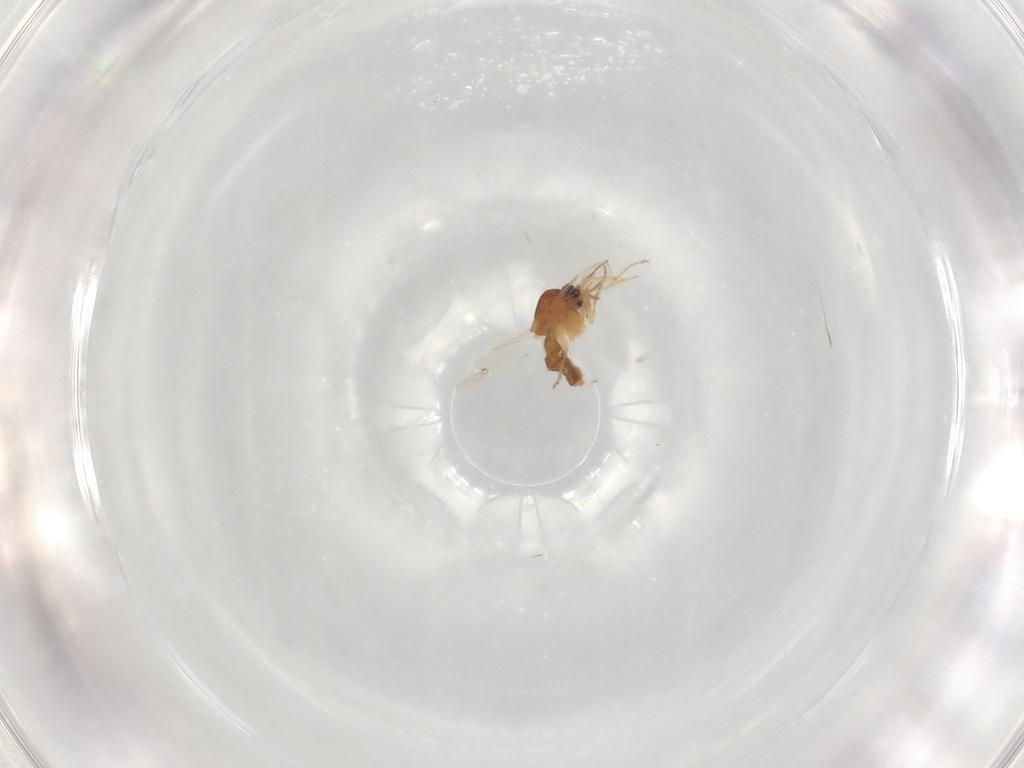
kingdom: Animalia
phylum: Arthropoda
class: Insecta
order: Diptera
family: Ceratopogonidae
